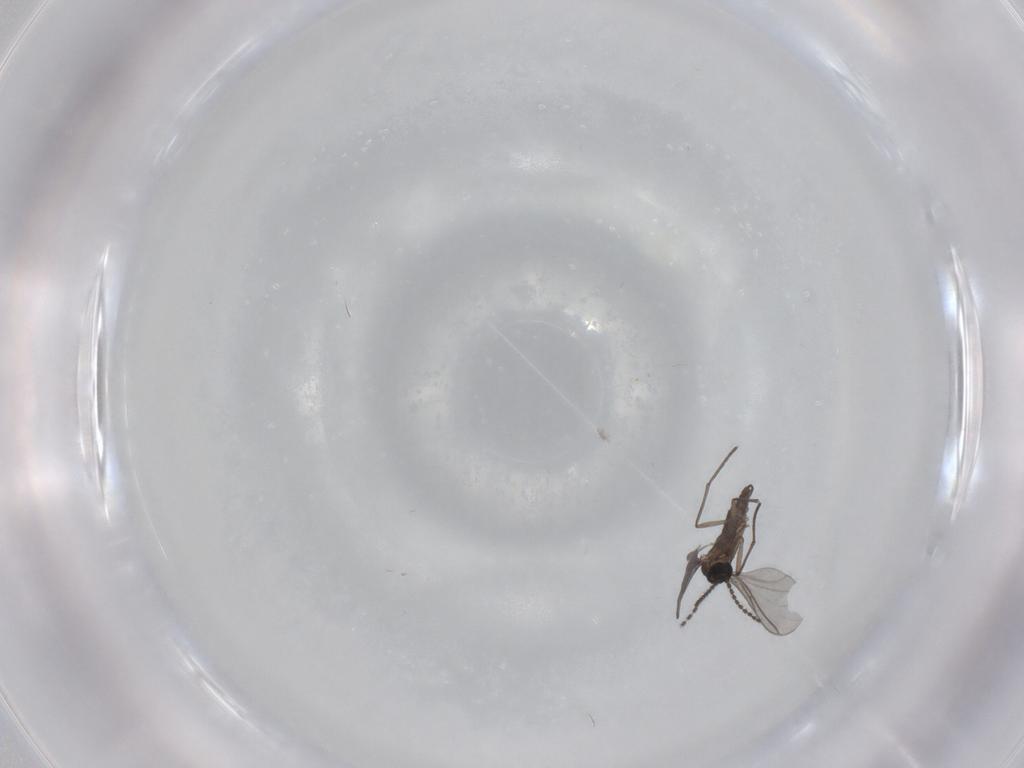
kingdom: Animalia
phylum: Arthropoda
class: Insecta
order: Diptera
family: Sciaridae
